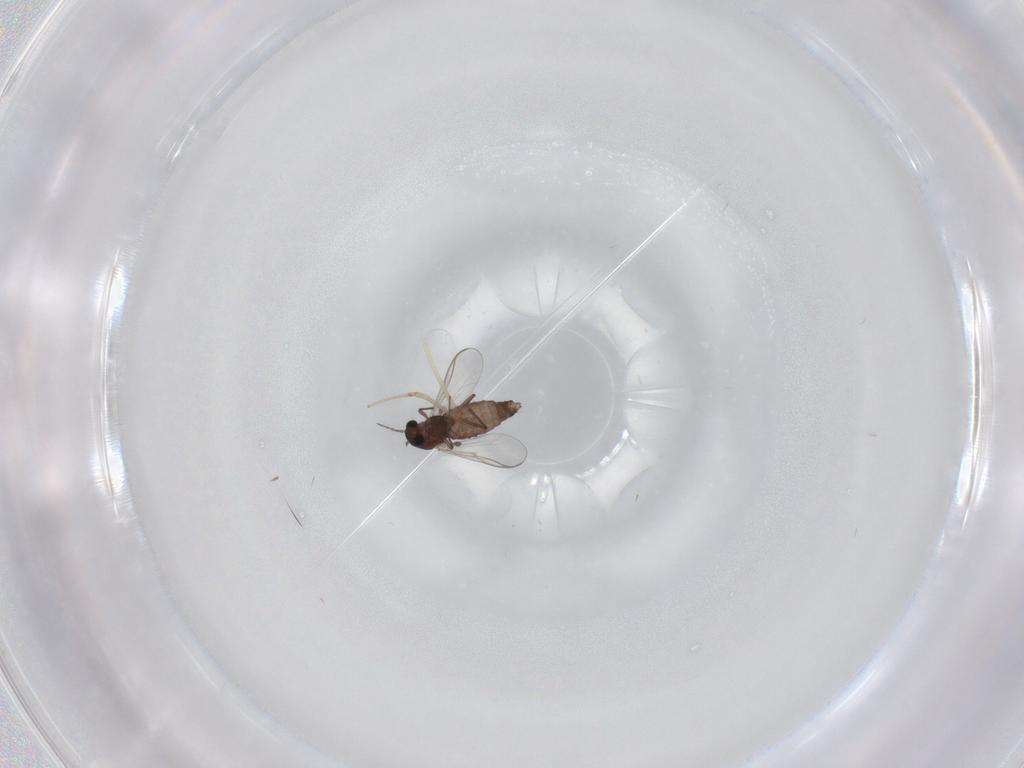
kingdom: Animalia
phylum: Arthropoda
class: Insecta
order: Diptera
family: Chironomidae
